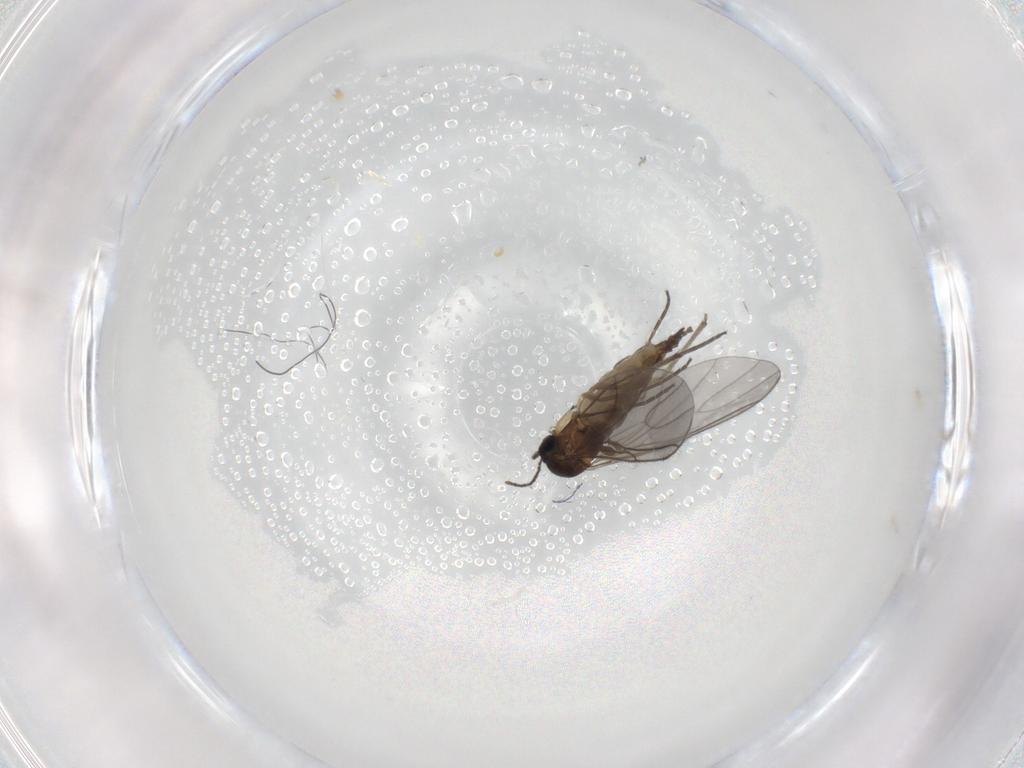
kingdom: Animalia
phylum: Arthropoda
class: Insecta
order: Diptera
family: Sciaridae
